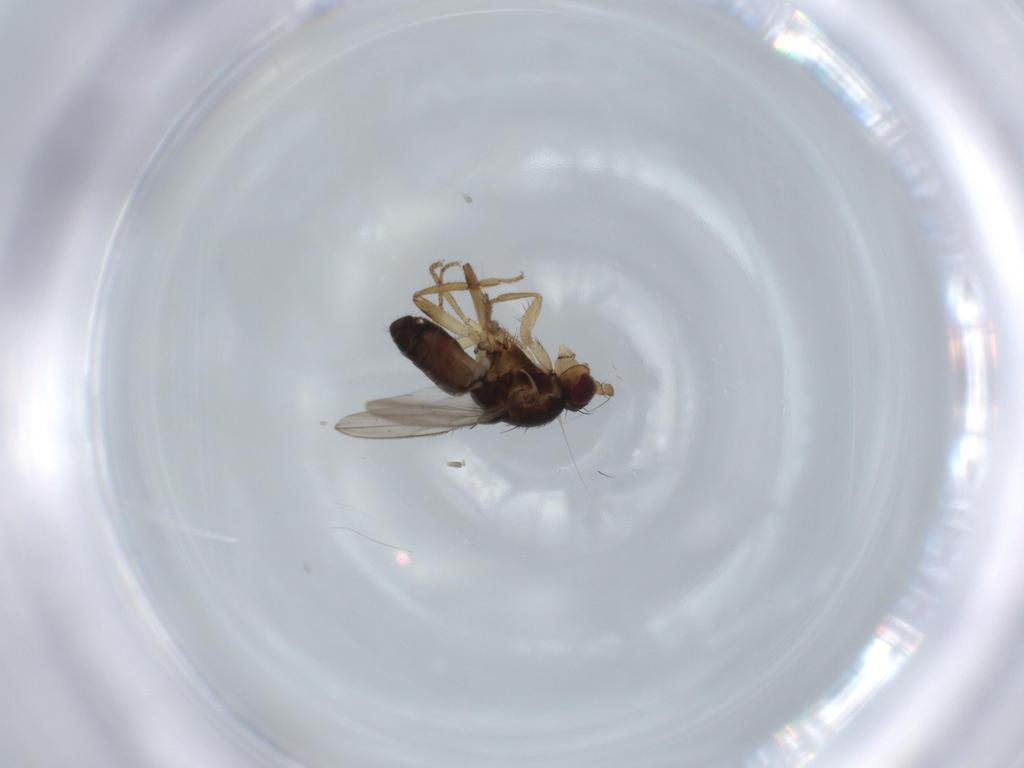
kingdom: Animalia
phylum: Arthropoda
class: Insecta
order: Diptera
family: Sphaeroceridae
